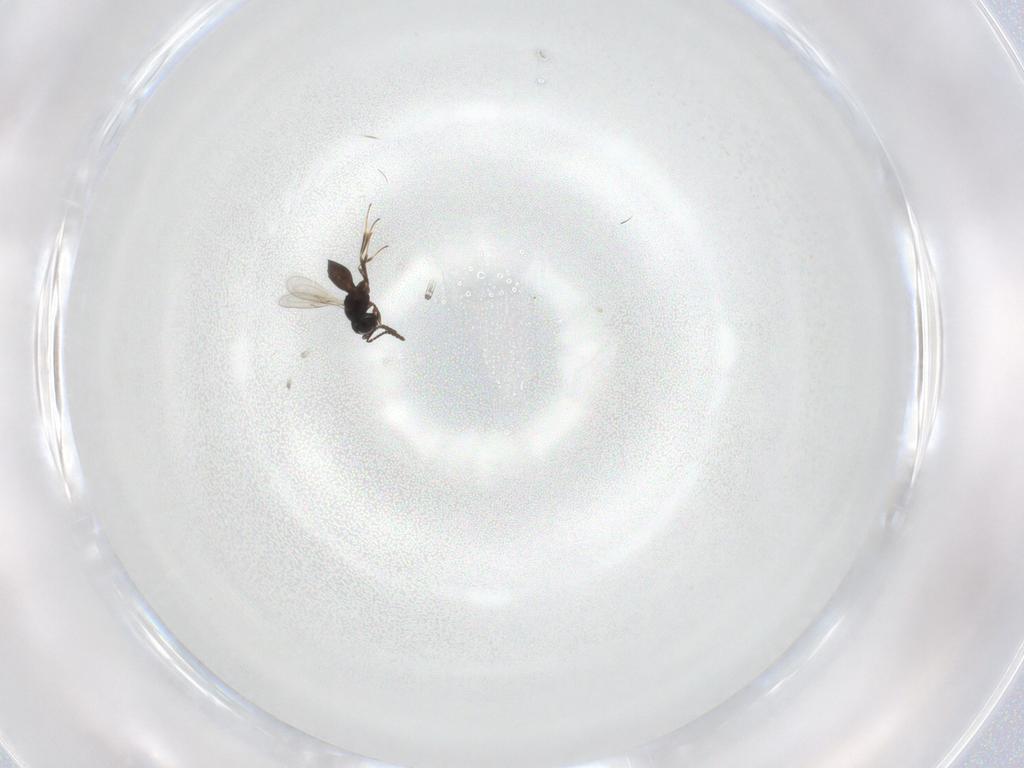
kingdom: Animalia
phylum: Arthropoda
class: Insecta
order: Hymenoptera
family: Scelionidae
